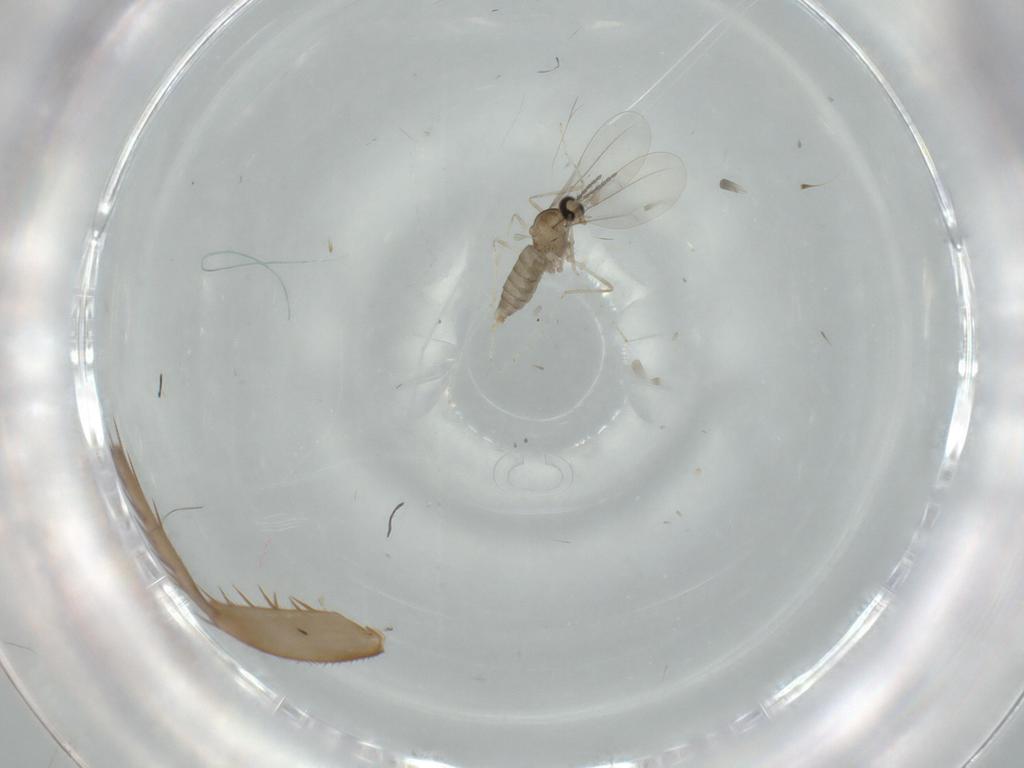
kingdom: Animalia
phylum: Arthropoda
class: Insecta
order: Diptera
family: Cecidomyiidae
